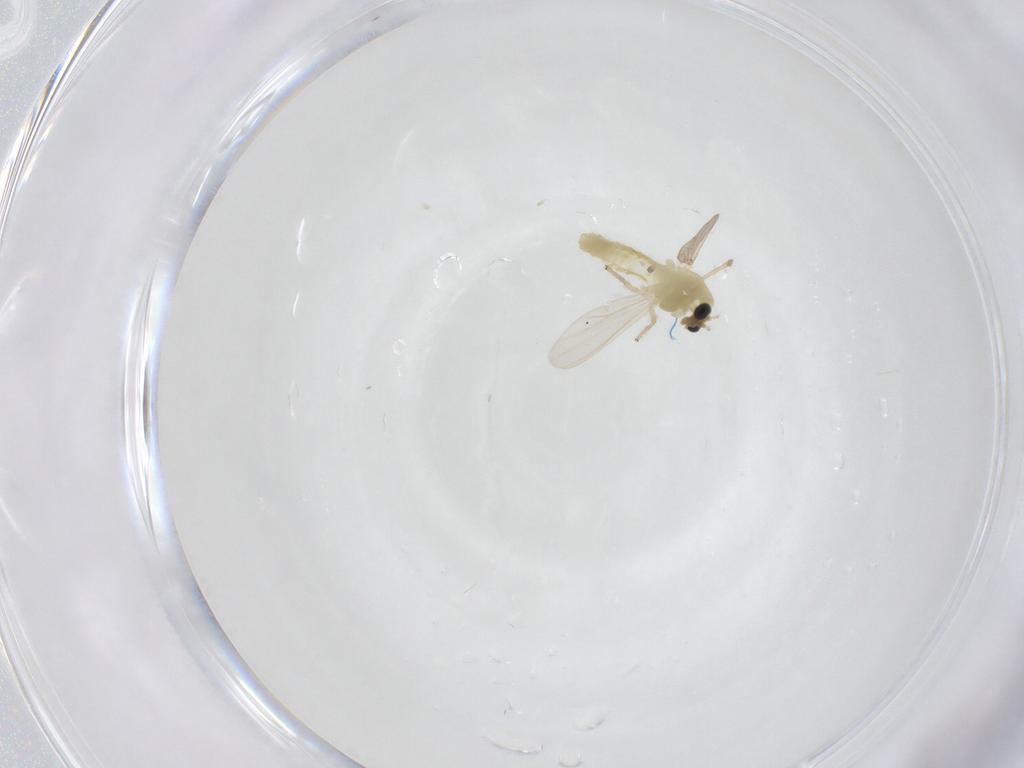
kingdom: Animalia
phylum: Arthropoda
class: Insecta
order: Diptera
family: Chironomidae
